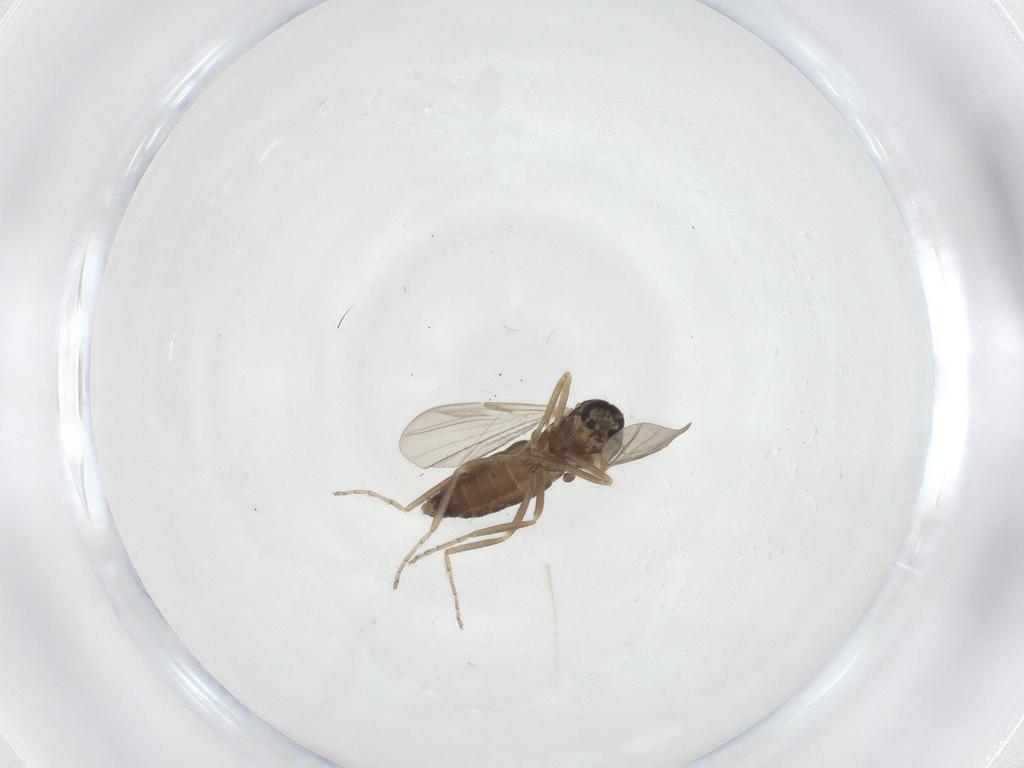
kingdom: Animalia
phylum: Arthropoda
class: Insecta
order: Diptera
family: Ceratopogonidae
